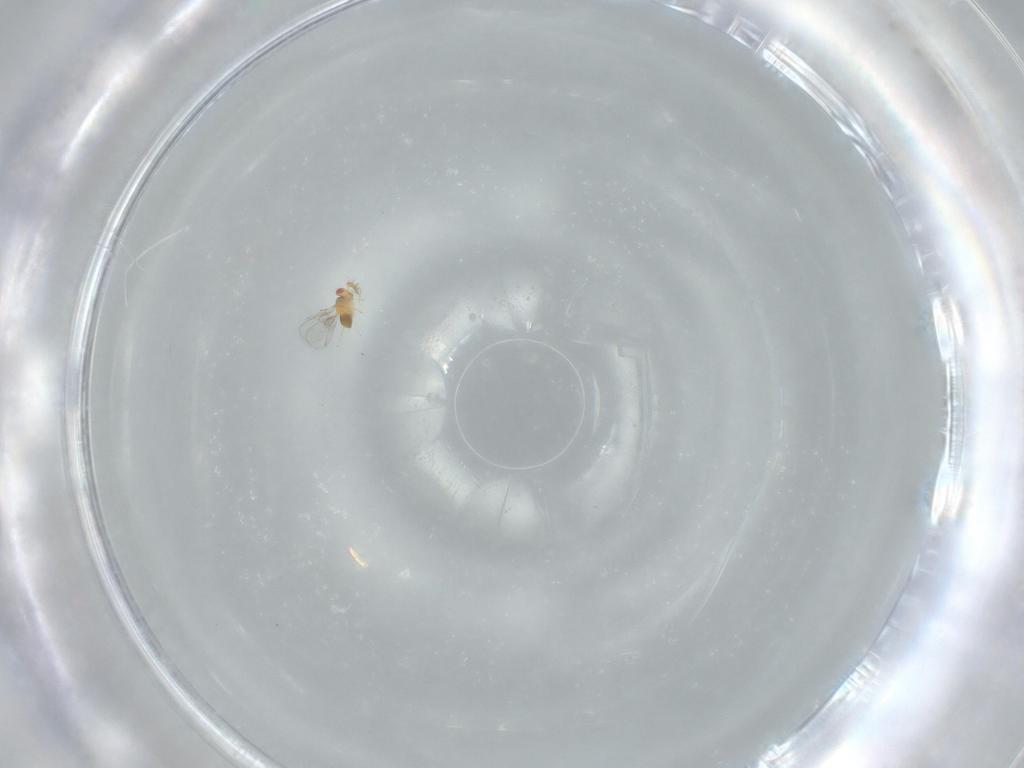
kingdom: Animalia
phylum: Arthropoda
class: Insecta
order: Hymenoptera
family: Trichogrammatidae
